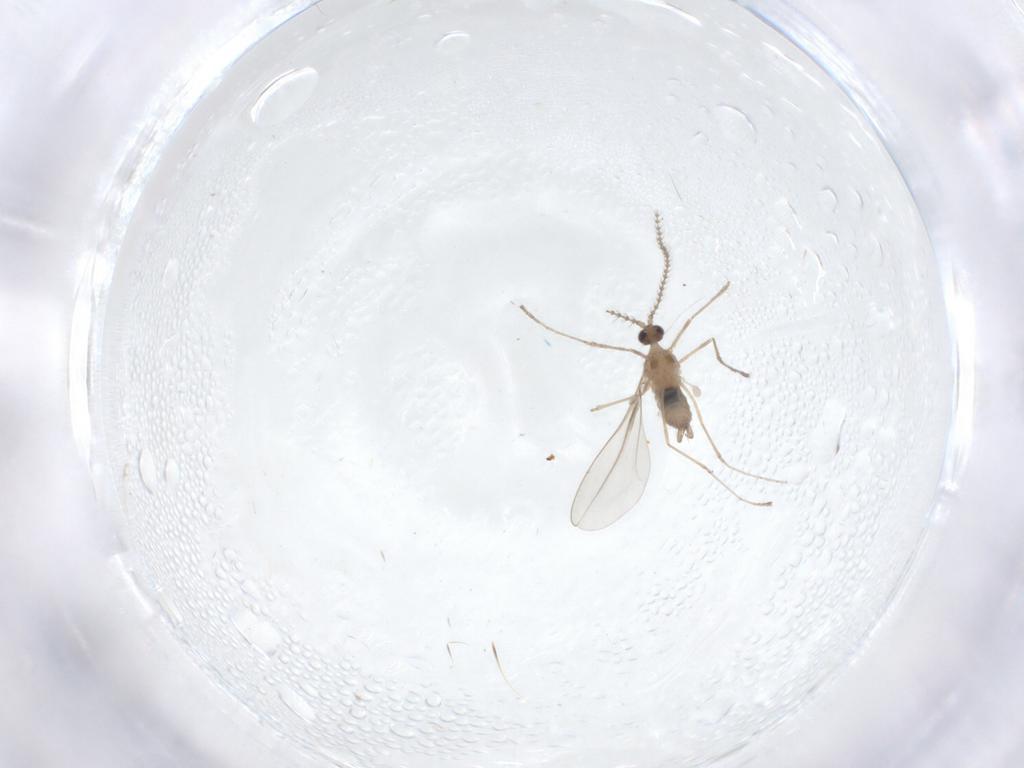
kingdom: Animalia
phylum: Arthropoda
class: Insecta
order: Diptera
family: Cecidomyiidae
